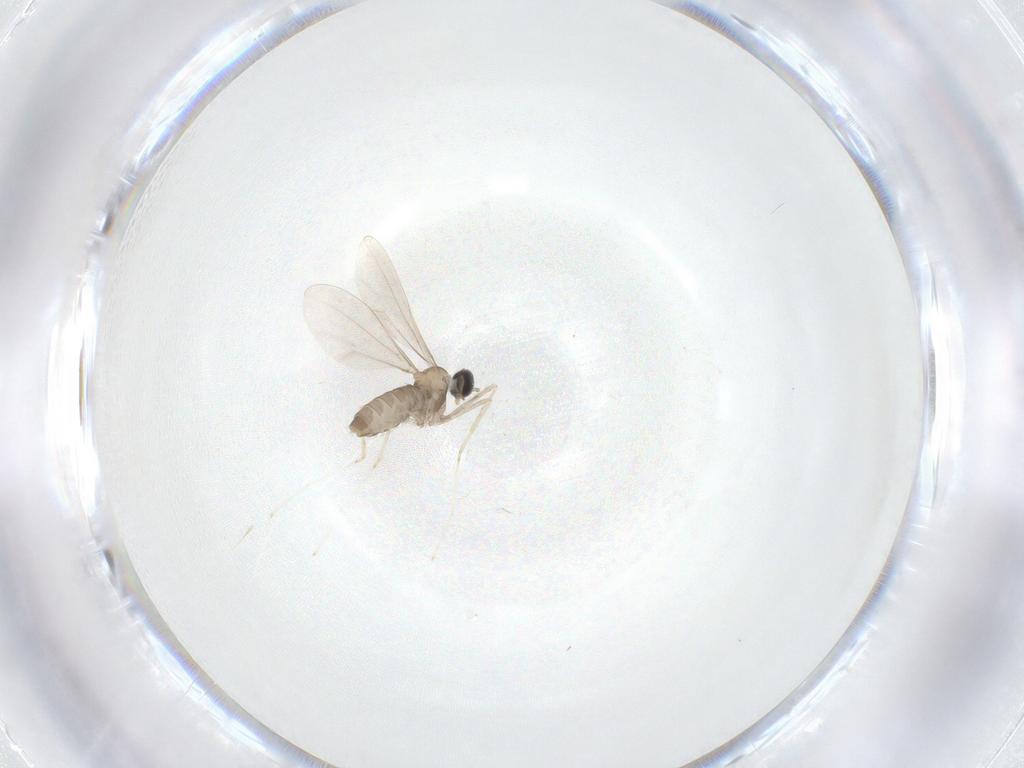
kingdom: Animalia
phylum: Arthropoda
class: Insecta
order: Diptera
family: Cecidomyiidae
